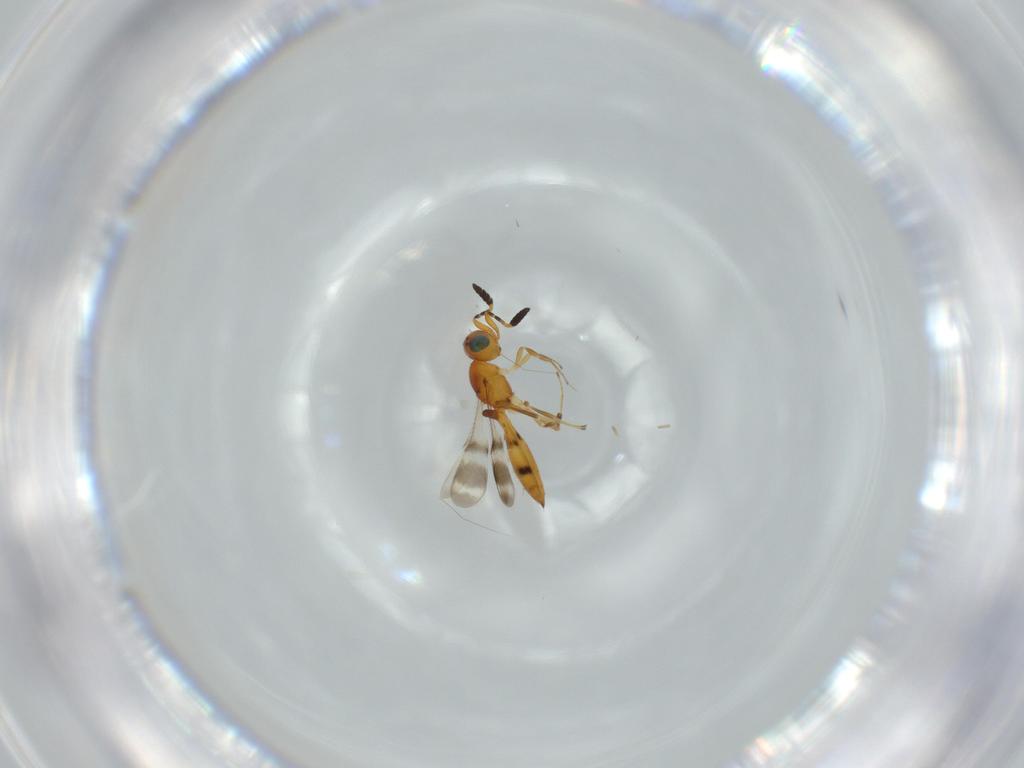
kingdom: Animalia
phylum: Arthropoda
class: Insecta
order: Hymenoptera
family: Scelionidae
